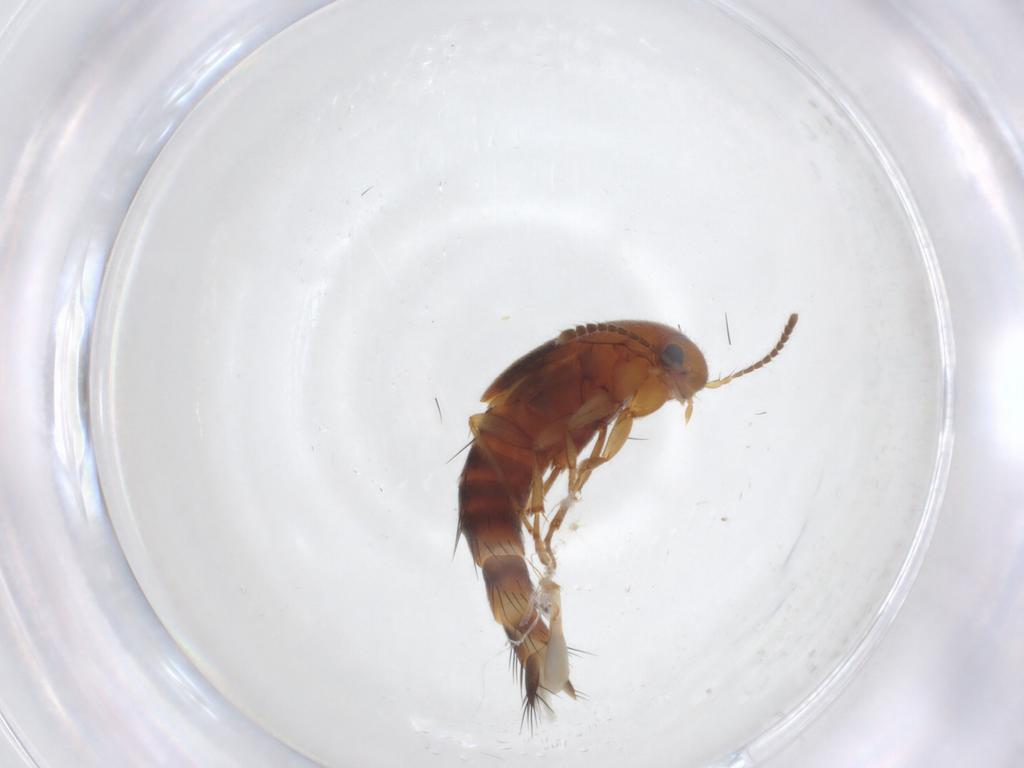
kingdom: Animalia
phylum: Arthropoda
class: Insecta
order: Coleoptera
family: Staphylinidae
